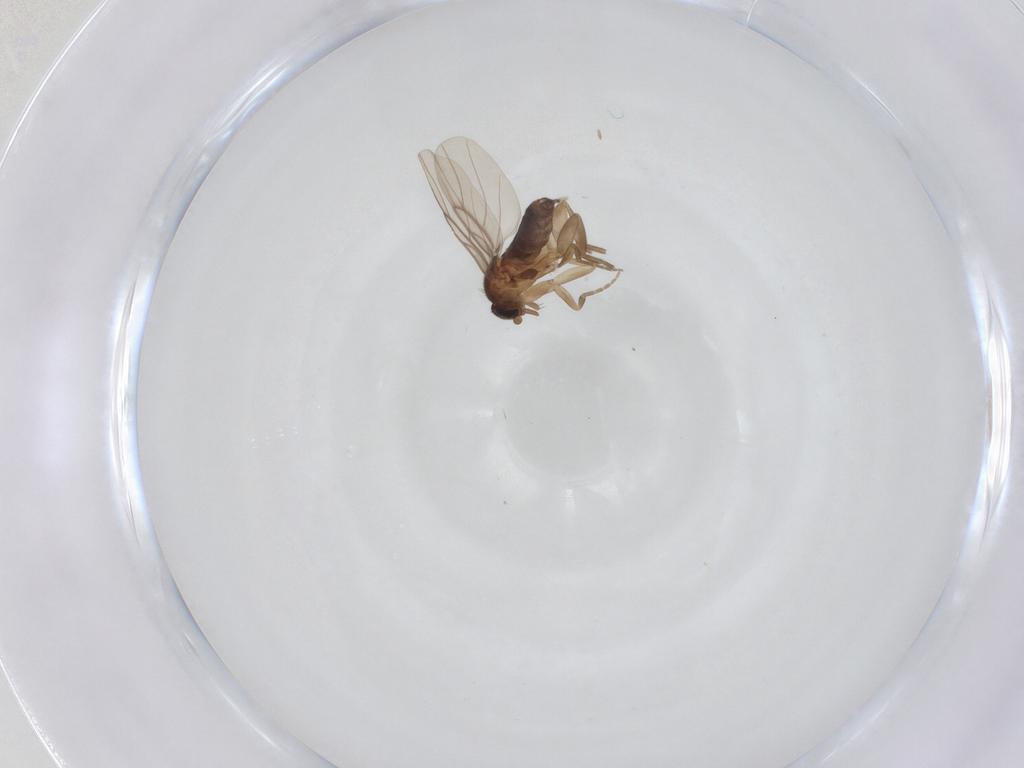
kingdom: Animalia
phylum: Arthropoda
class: Insecta
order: Diptera
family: Phoridae
